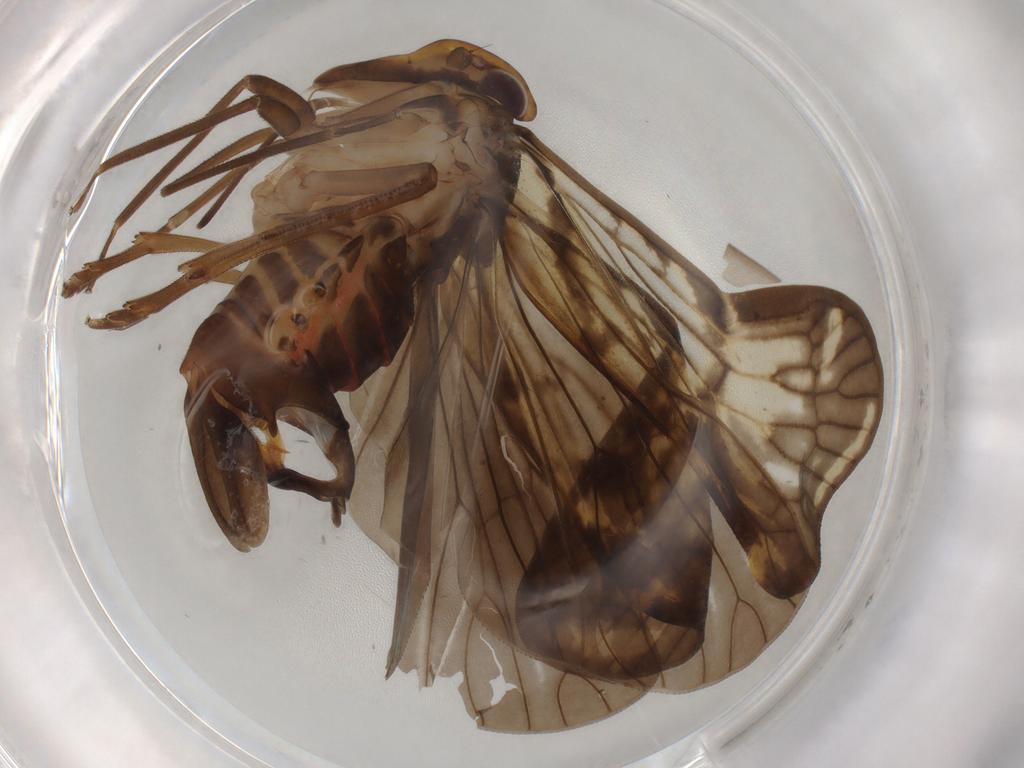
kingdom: Animalia
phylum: Arthropoda
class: Insecta
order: Hemiptera
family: Cixiidae
